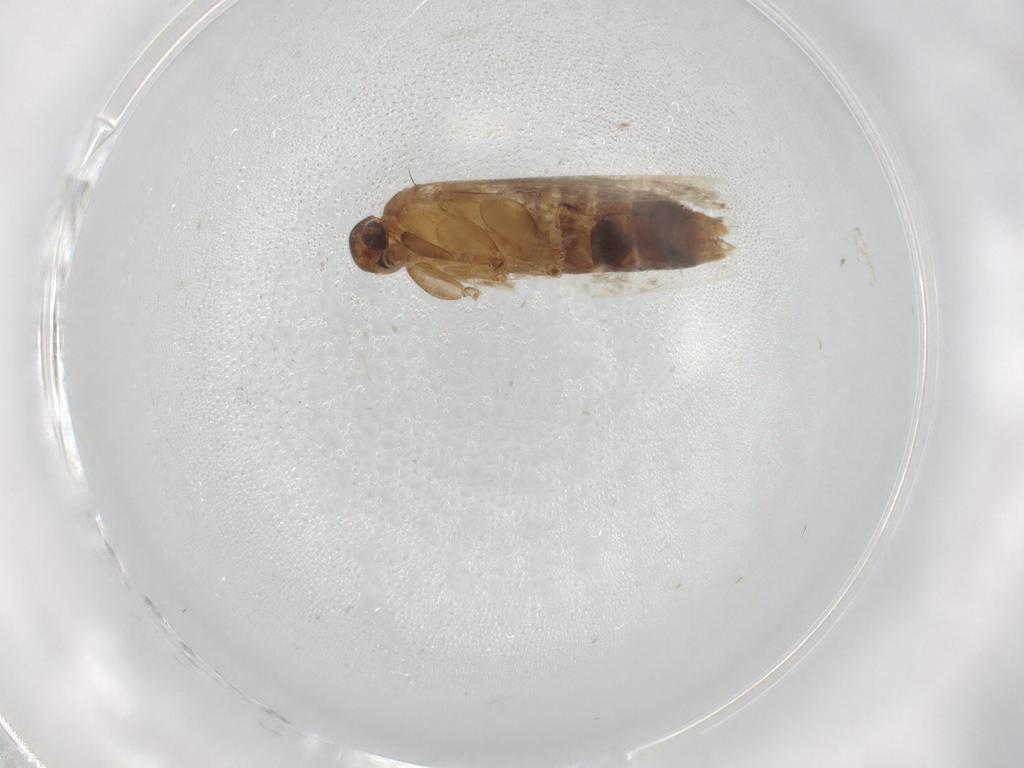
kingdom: Animalia
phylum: Arthropoda
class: Insecta
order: Lepidoptera
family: Gelechiidae
